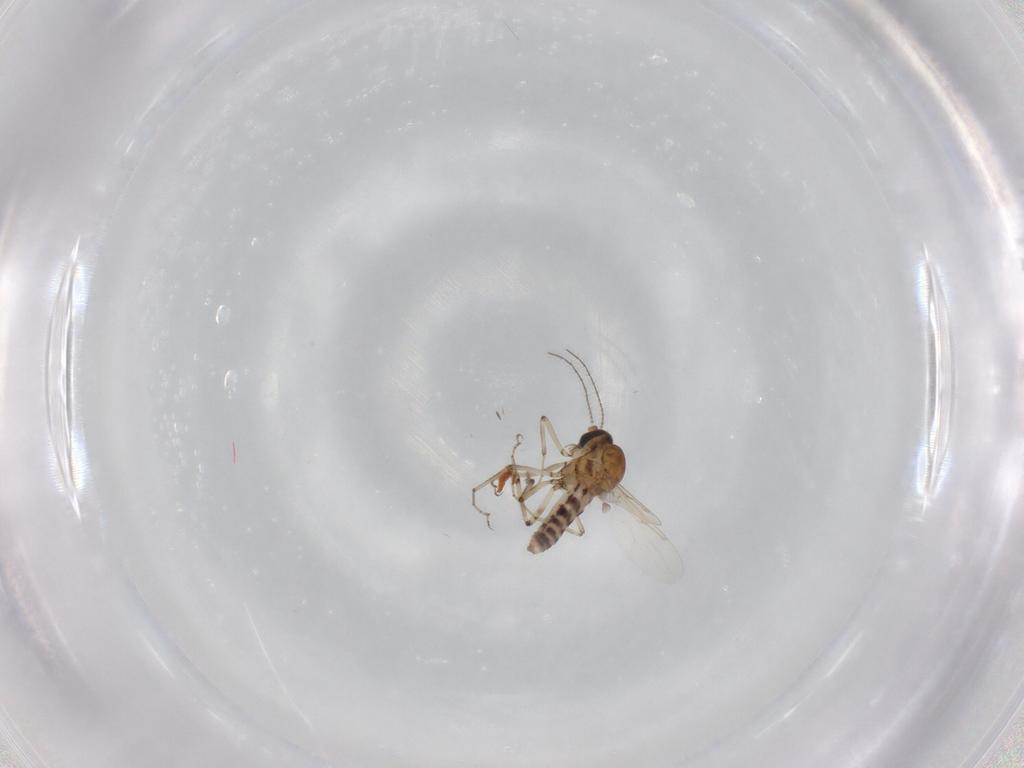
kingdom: Animalia
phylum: Arthropoda
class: Insecta
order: Diptera
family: Ceratopogonidae
